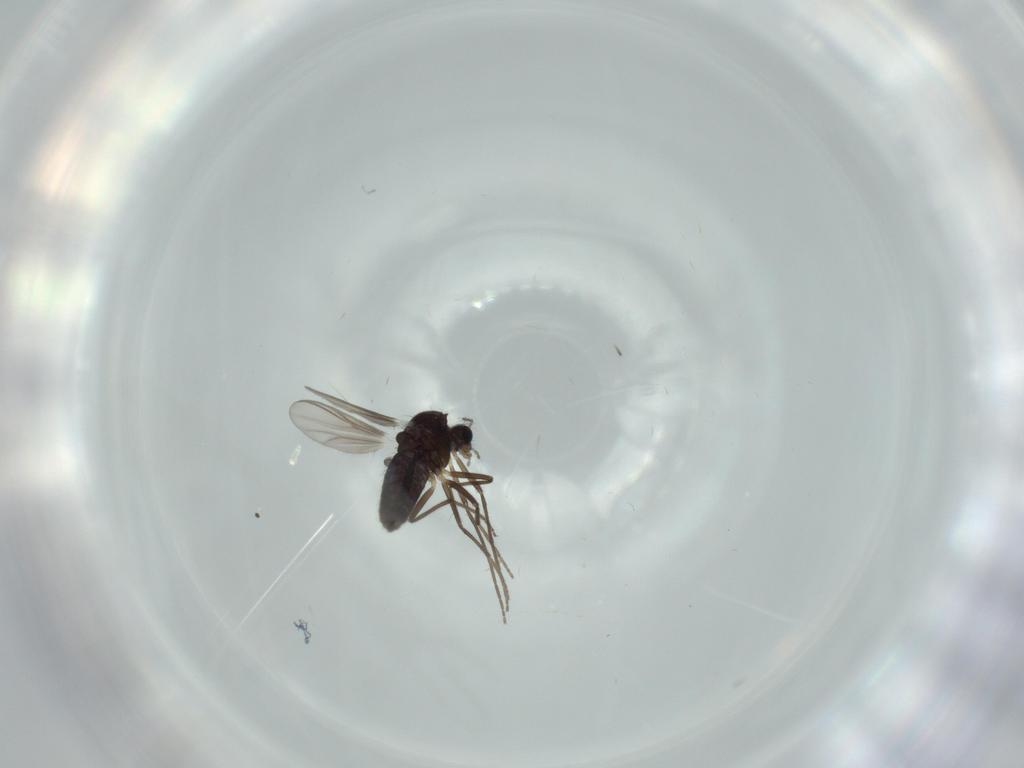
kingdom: Animalia
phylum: Arthropoda
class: Insecta
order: Diptera
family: Chironomidae
